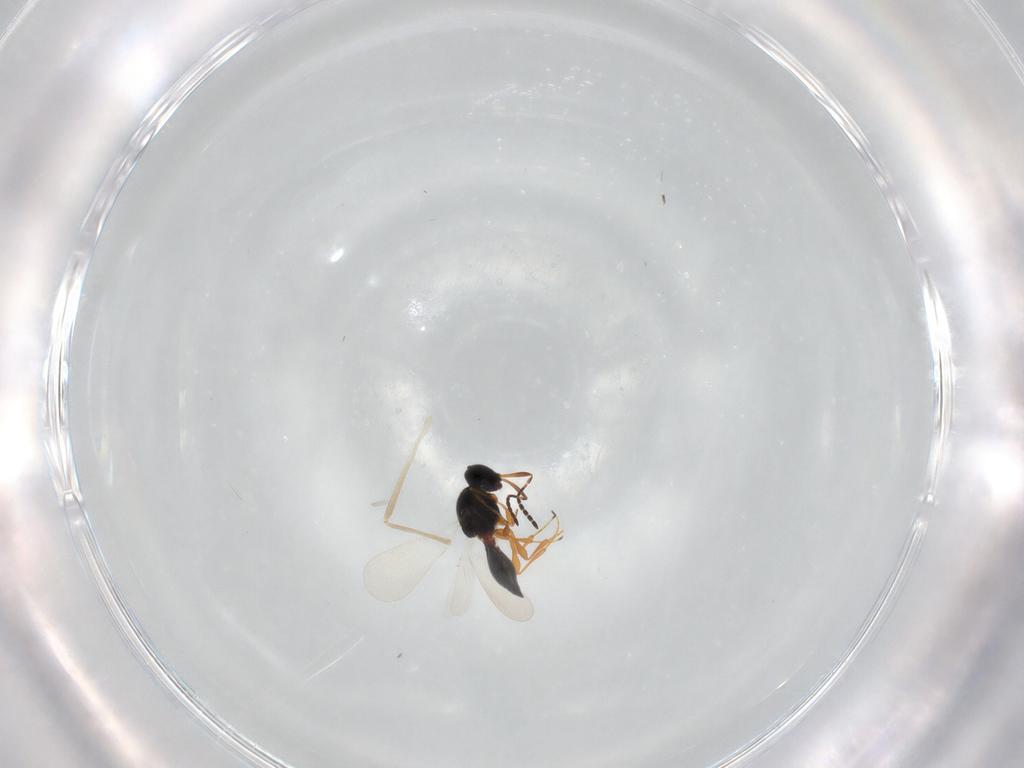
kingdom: Animalia
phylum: Arthropoda
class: Insecta
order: Hymenoptera
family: Platygastridae
